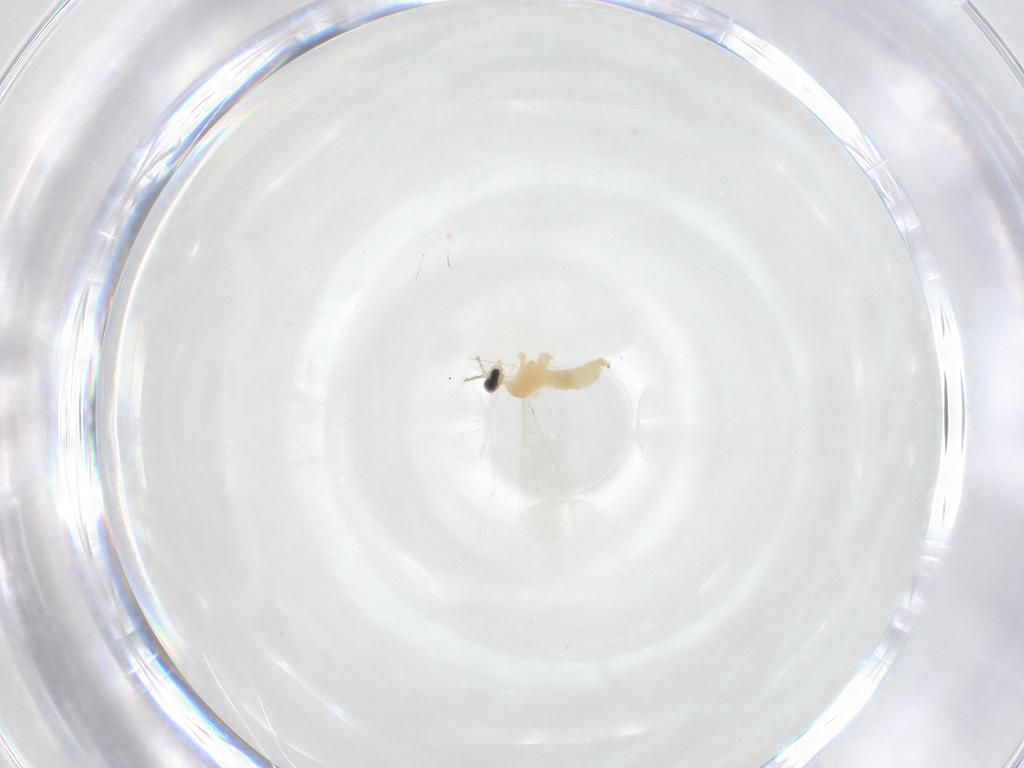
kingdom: Animalia
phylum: Arthropoda
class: Insecta
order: Diptera
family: Cecidomyiidae
